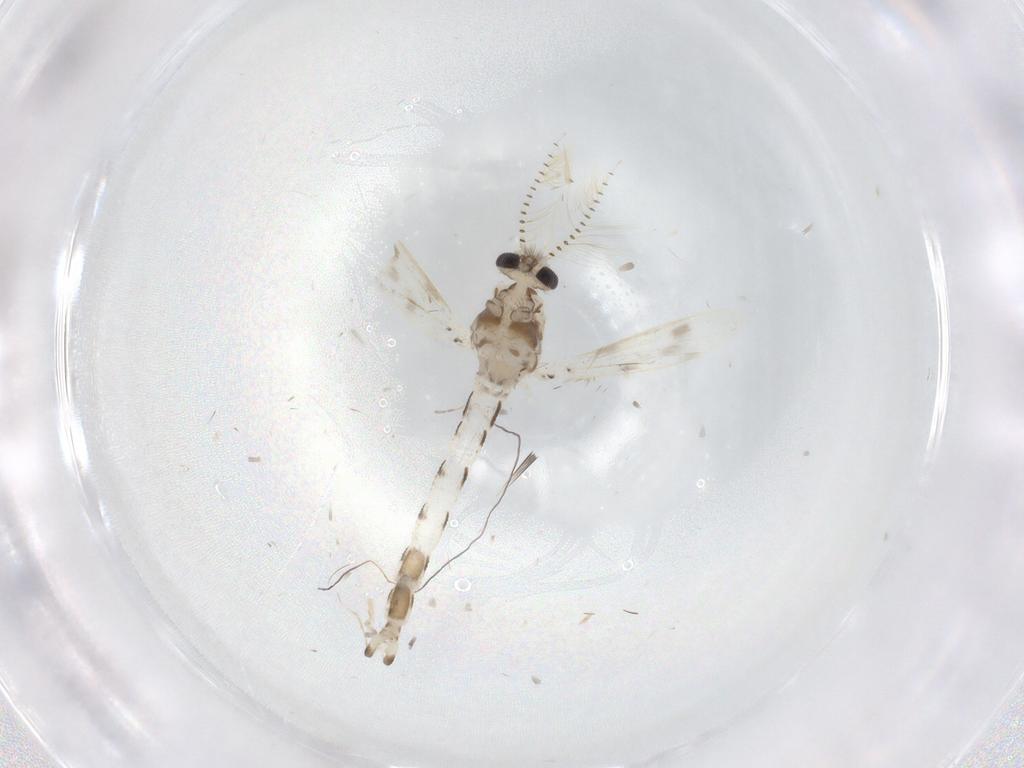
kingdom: Animalia
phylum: Arthropoda
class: Insecta
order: Diptera
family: Corethrellidae
